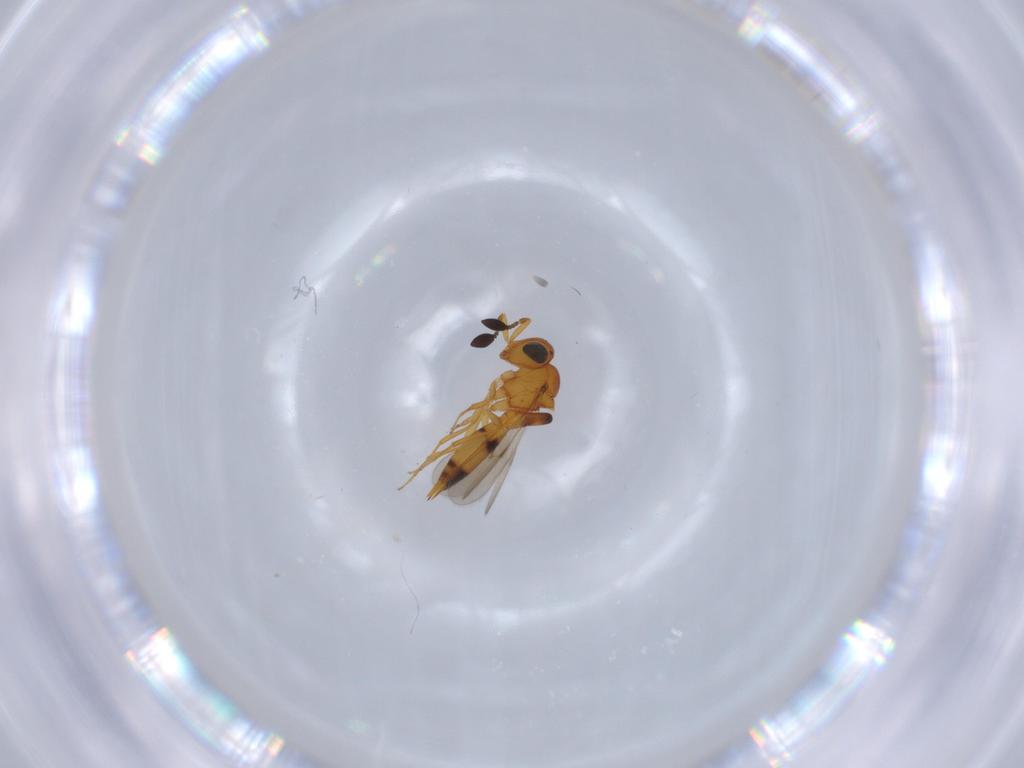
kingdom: Animalia
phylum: Arthropoda
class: Insecta
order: Hymenoptera
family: Scelionidae
